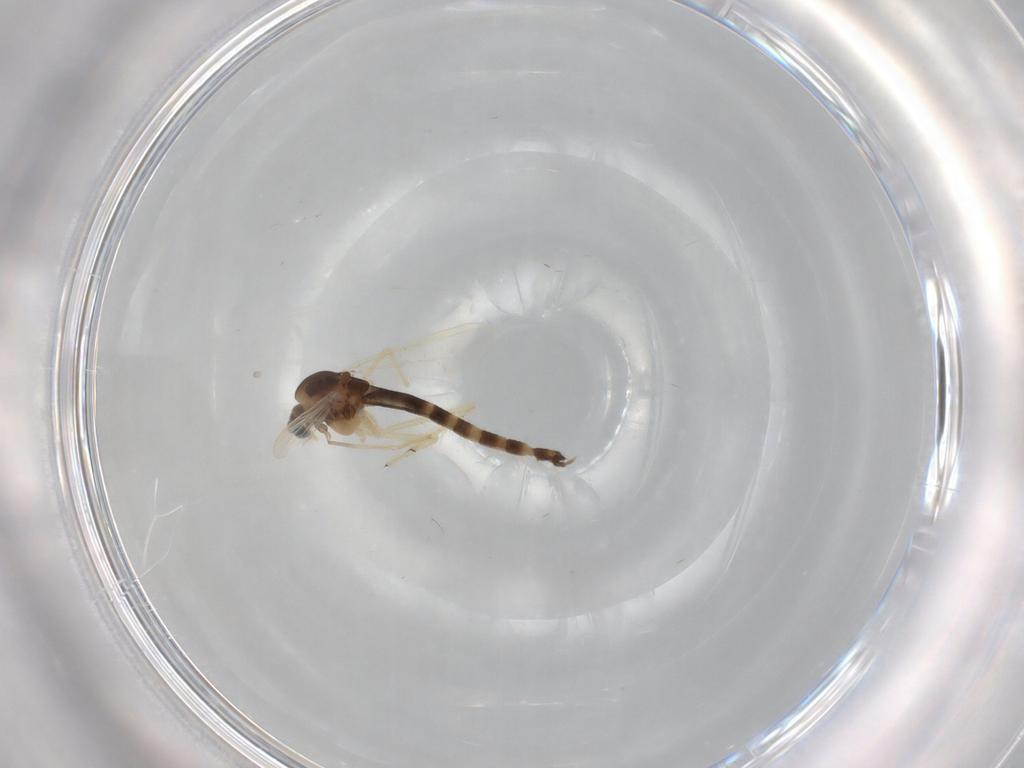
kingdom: Animalia
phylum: Arthropoda
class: Insecta
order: Diptera
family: Chironomidae
